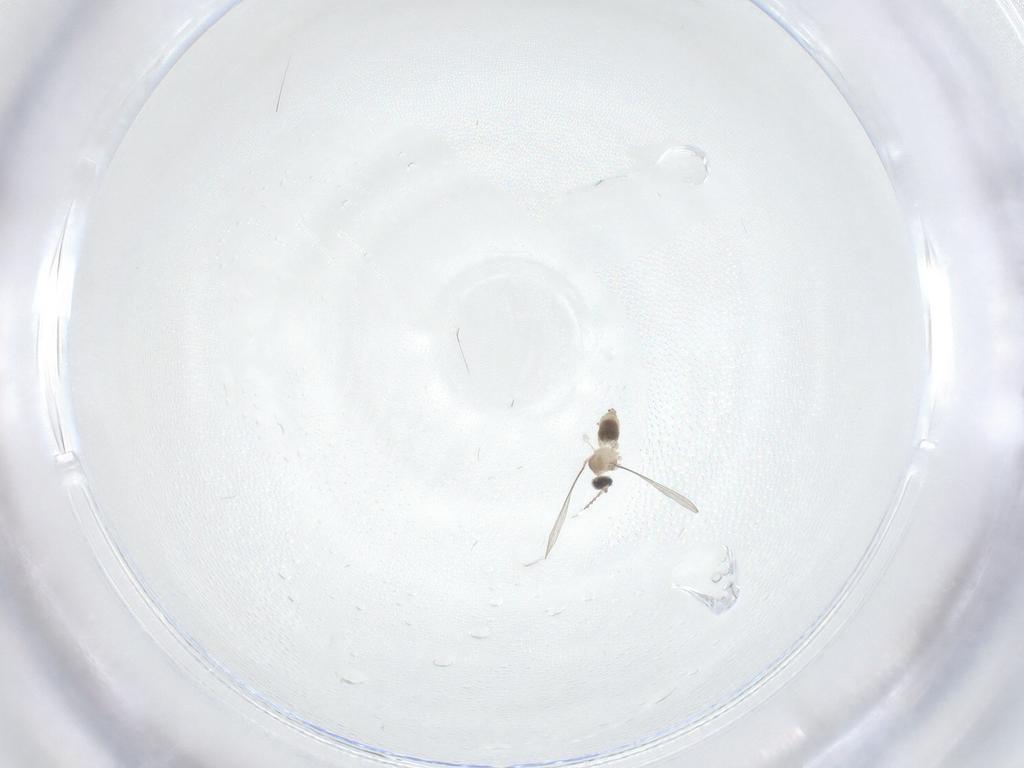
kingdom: Animalia
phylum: Arthropoda
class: Insecta
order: Diptera
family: Cecidomyiidae
